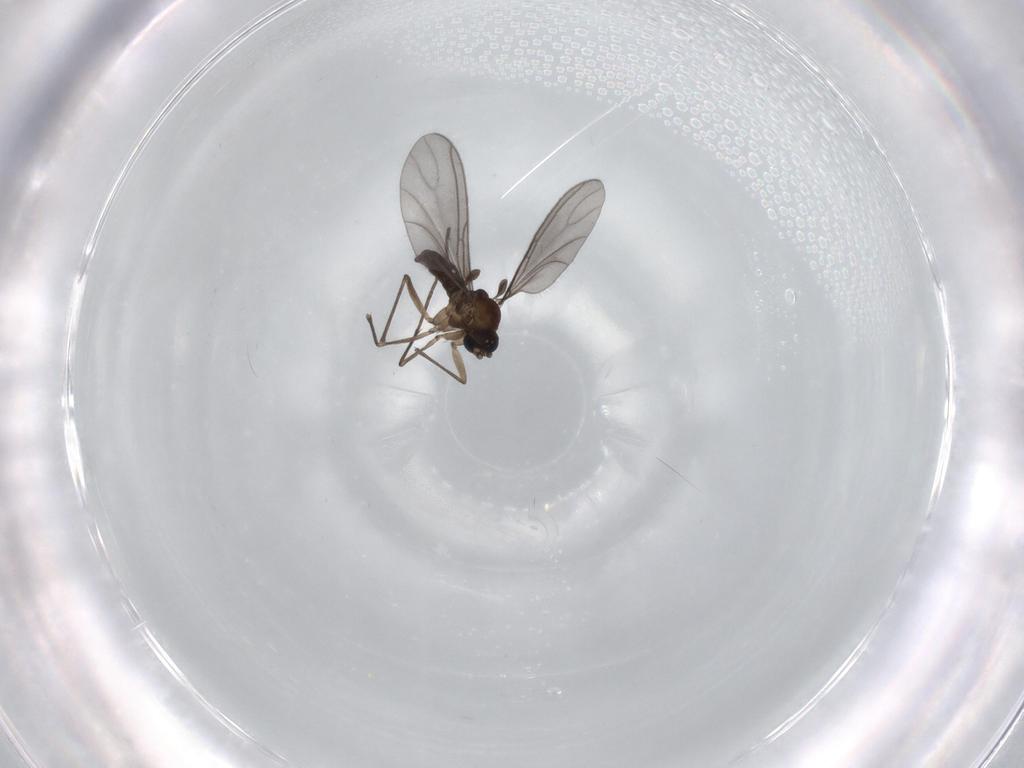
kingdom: Animalia
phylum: Arthropoda
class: Insecta
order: Diptera
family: Sciaridae
